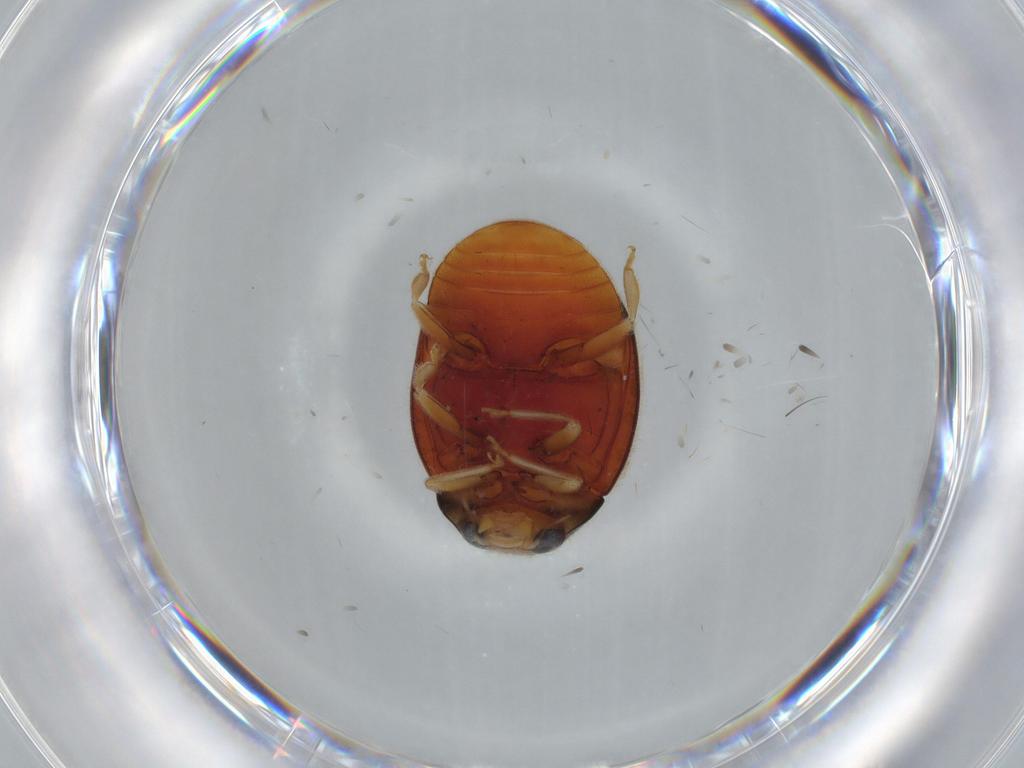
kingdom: Animalia
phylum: Arthropoda
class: Insecta
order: Coleoptera
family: Coccinellidae
